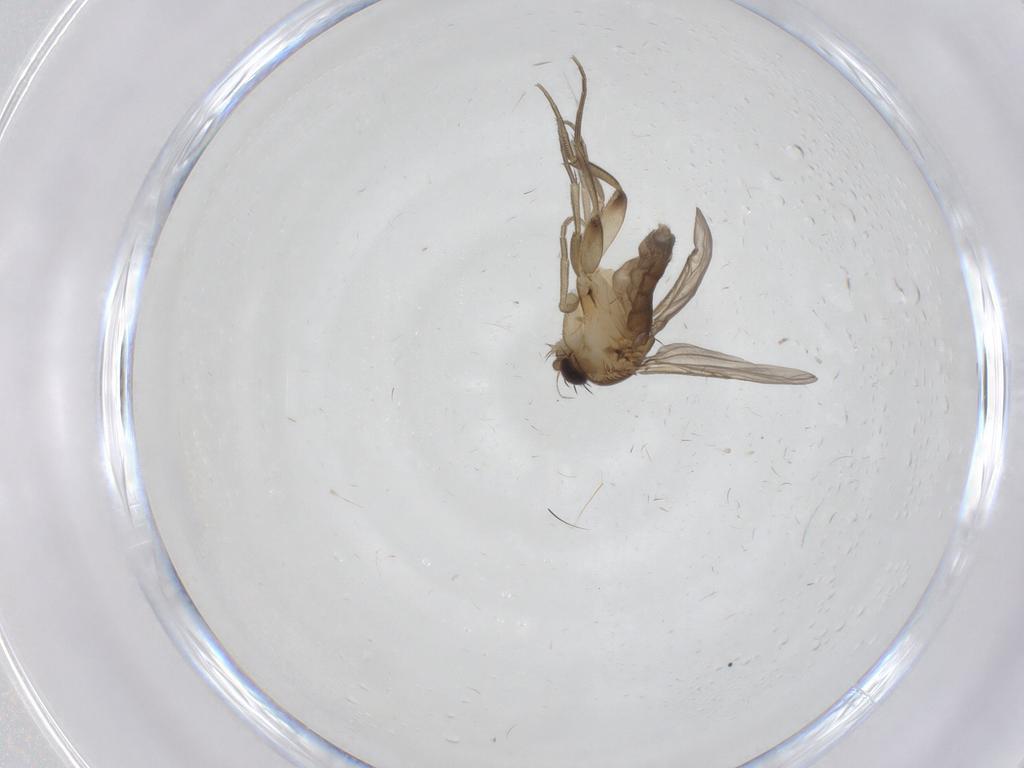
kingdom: Animalia
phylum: Arthropoda
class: Insecta
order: Diptera
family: Phoridae
